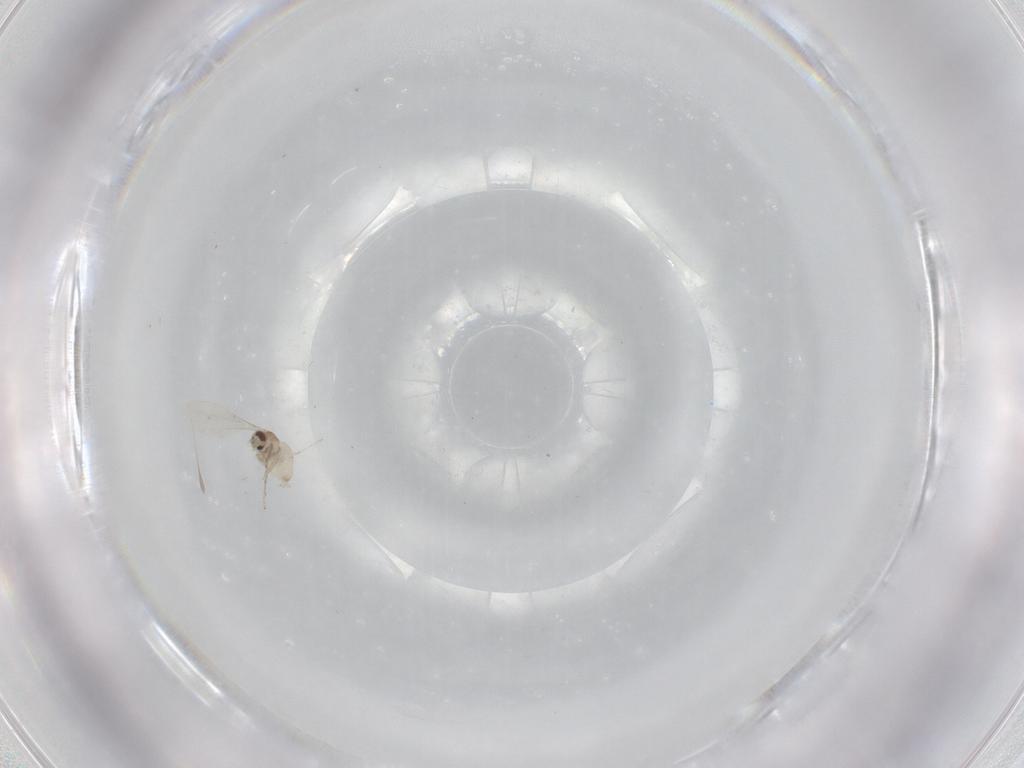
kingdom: Animalia
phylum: Arthropoda
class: Insecta
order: Diptera
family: Cecidomyiidae
